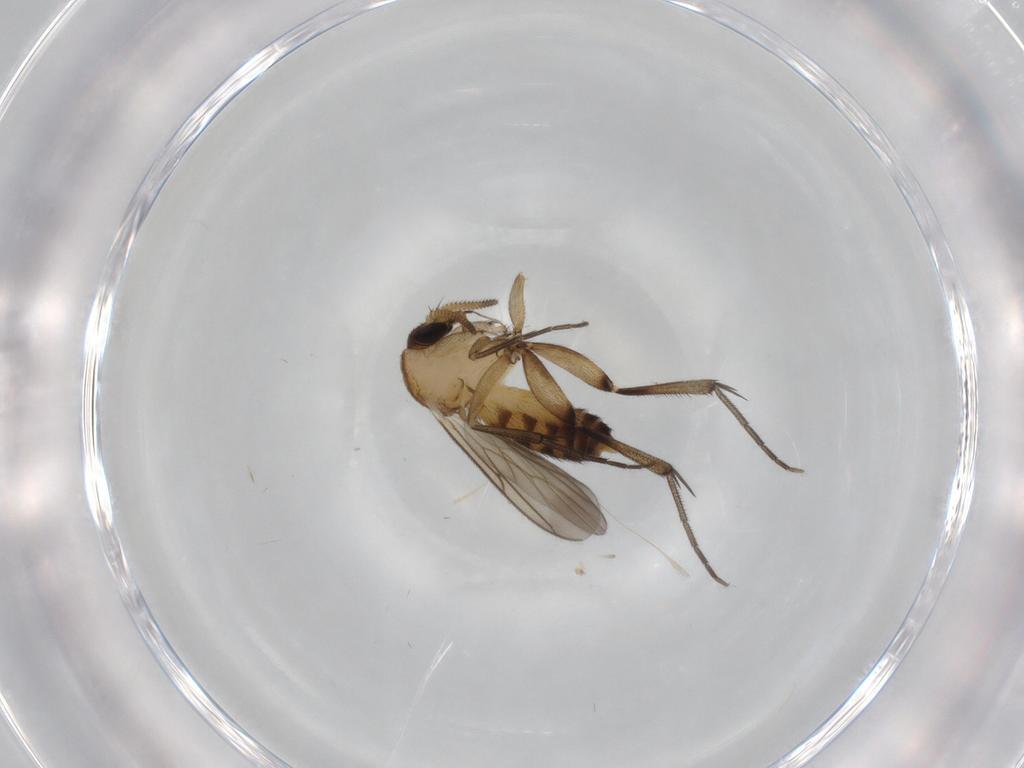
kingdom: Animalia
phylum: Arthropoda
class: Insecta
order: Diptera
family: Mycetophilidae
